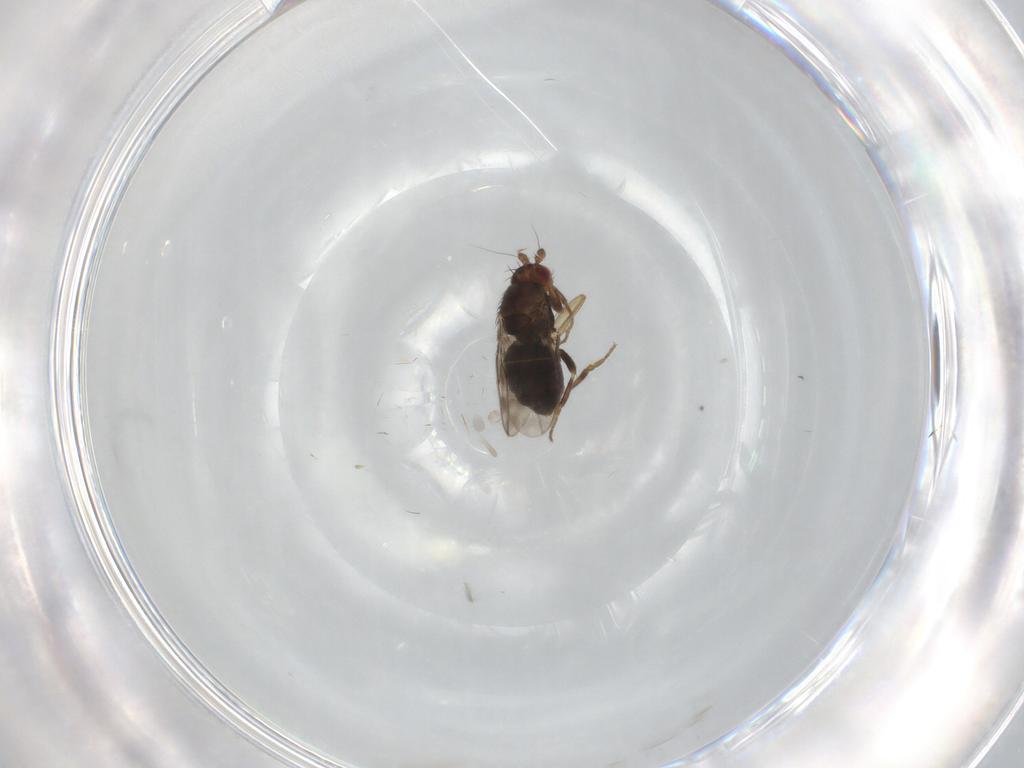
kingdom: Animalia
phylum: Arthropoda
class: Insecta
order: Diptera
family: Sphaeroceridae
